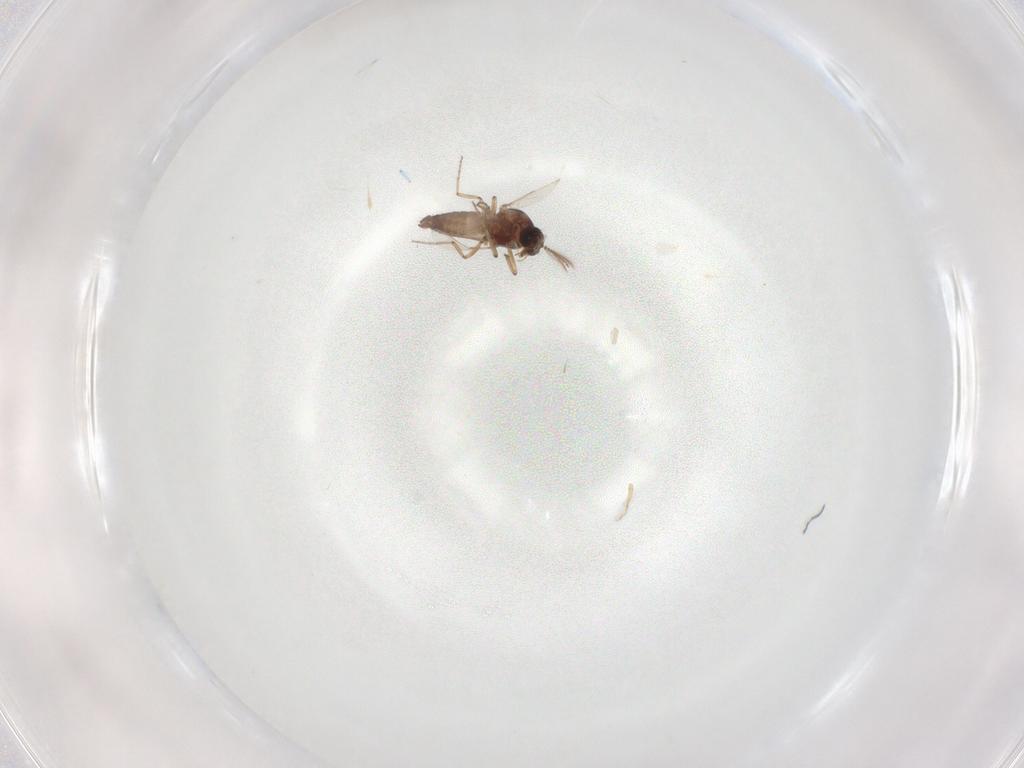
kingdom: Animalia
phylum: Arthropoda
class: Insecta
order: Diptera
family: Ceratopogonidae
